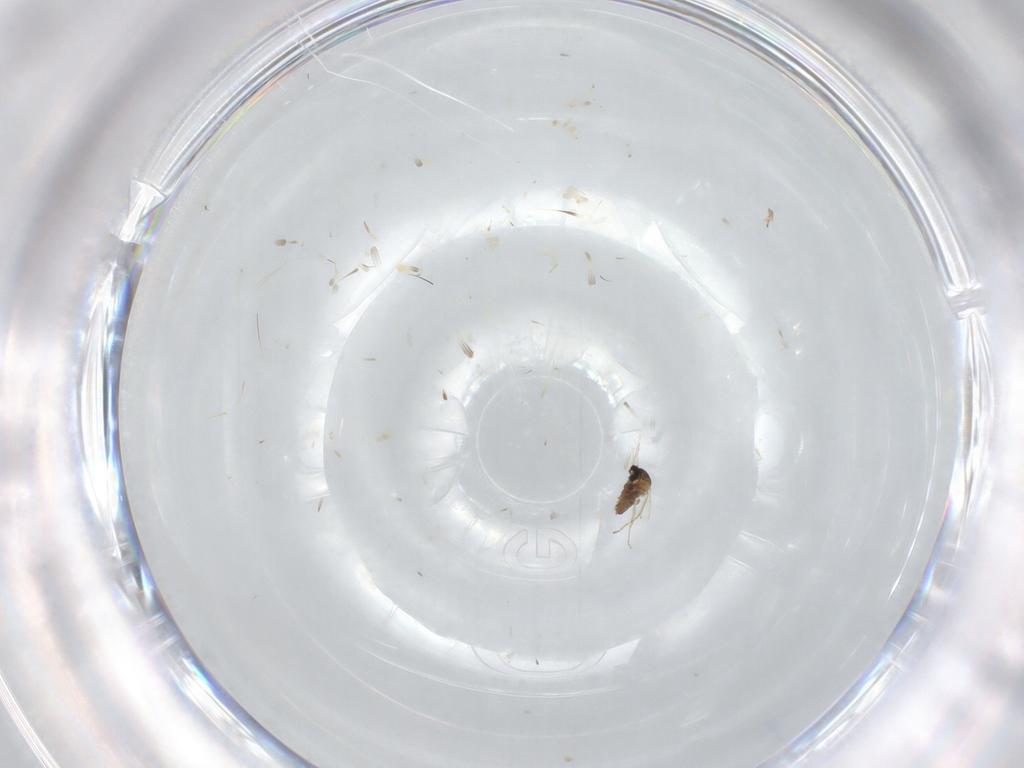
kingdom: Animalia
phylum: Arthropoda
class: Insecta
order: Diptera
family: Cecidomyiidae
